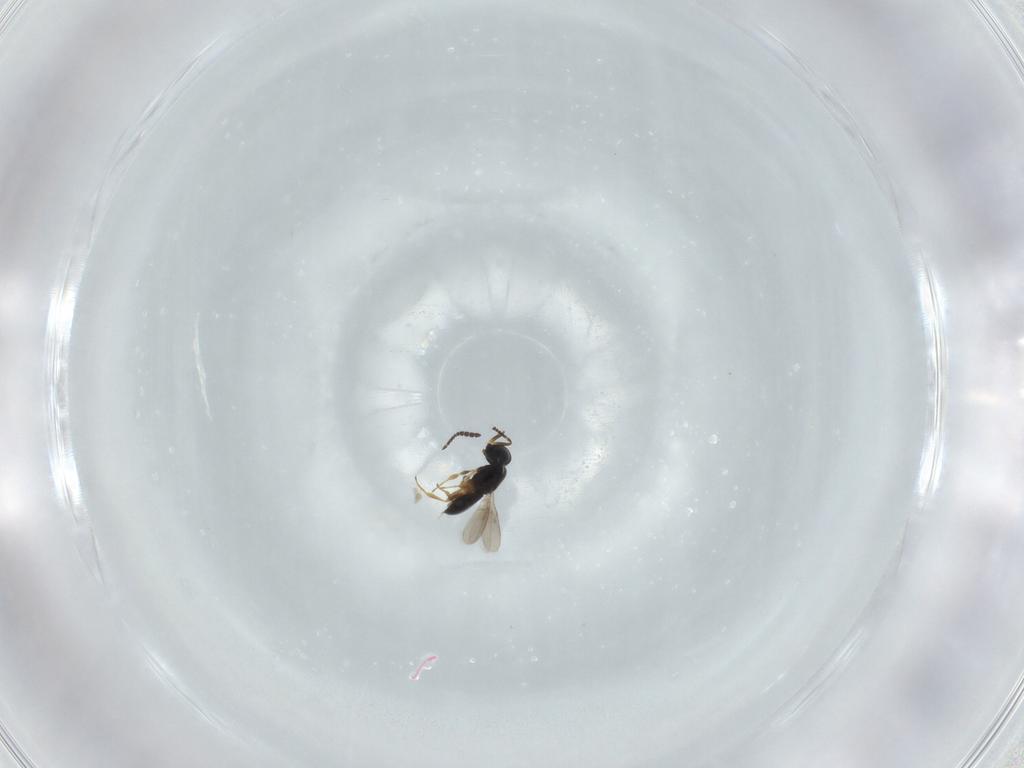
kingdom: Animalia
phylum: Arthropoda
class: Insecta
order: Hymenoptera
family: Scelionidae
